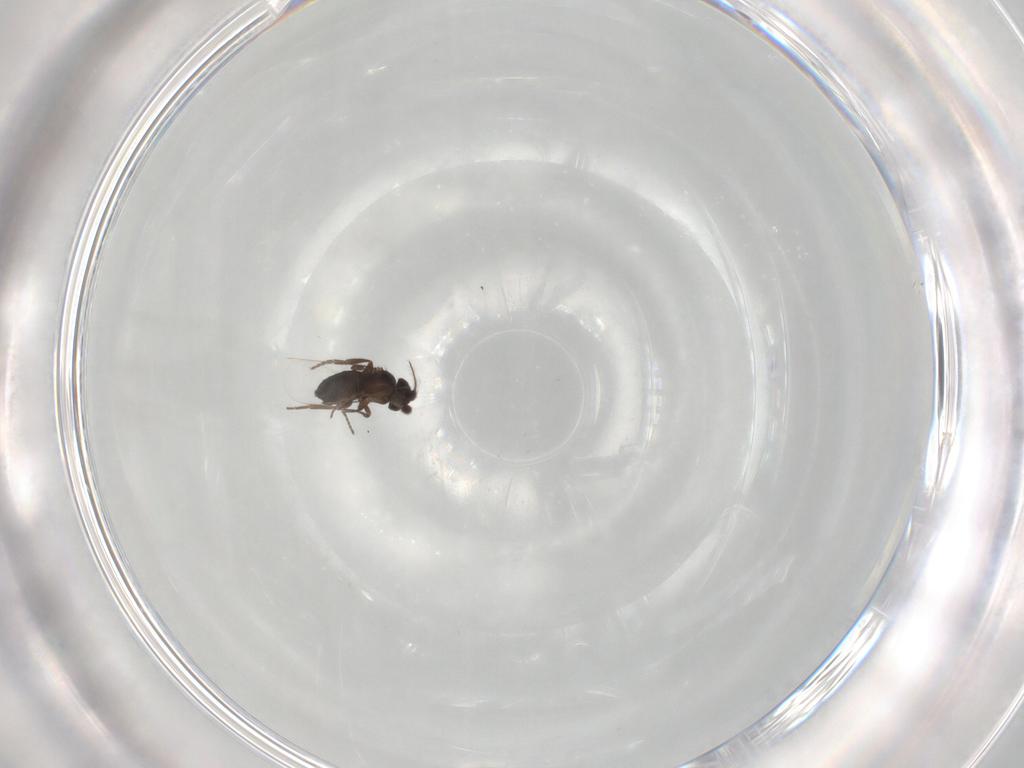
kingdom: Animalia
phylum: Arthropoda
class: Insecta
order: Diptera
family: Chironomidae
